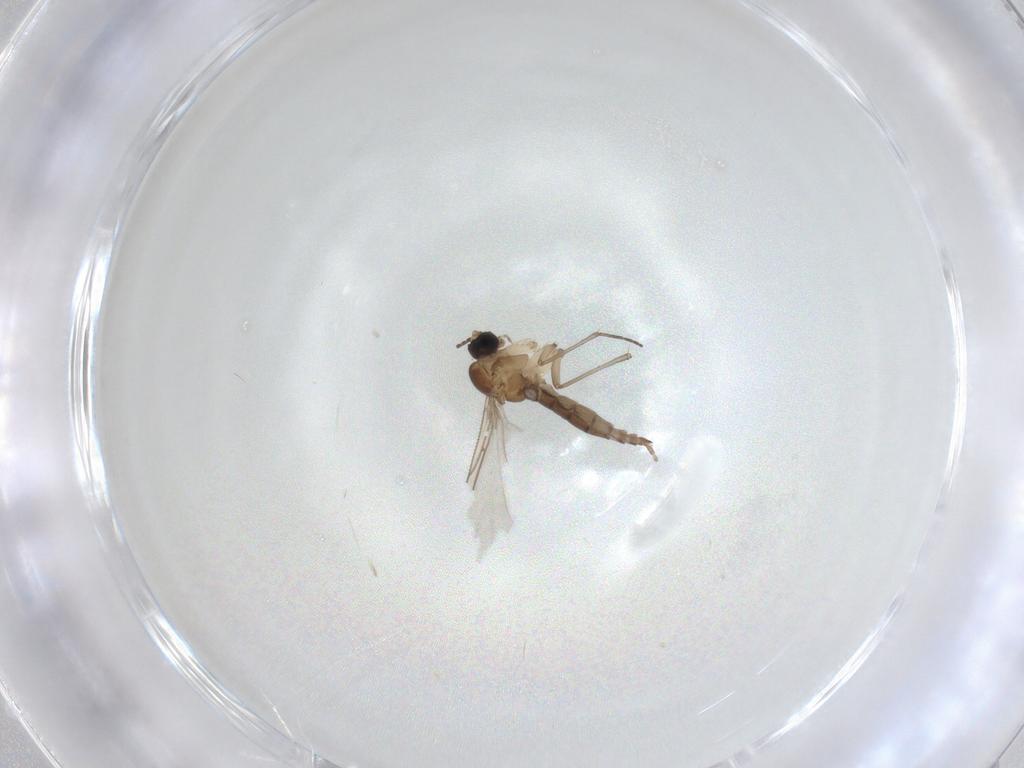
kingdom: Animalia
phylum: Arthropoda
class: Insecta
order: Diptera
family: Sciaridae
